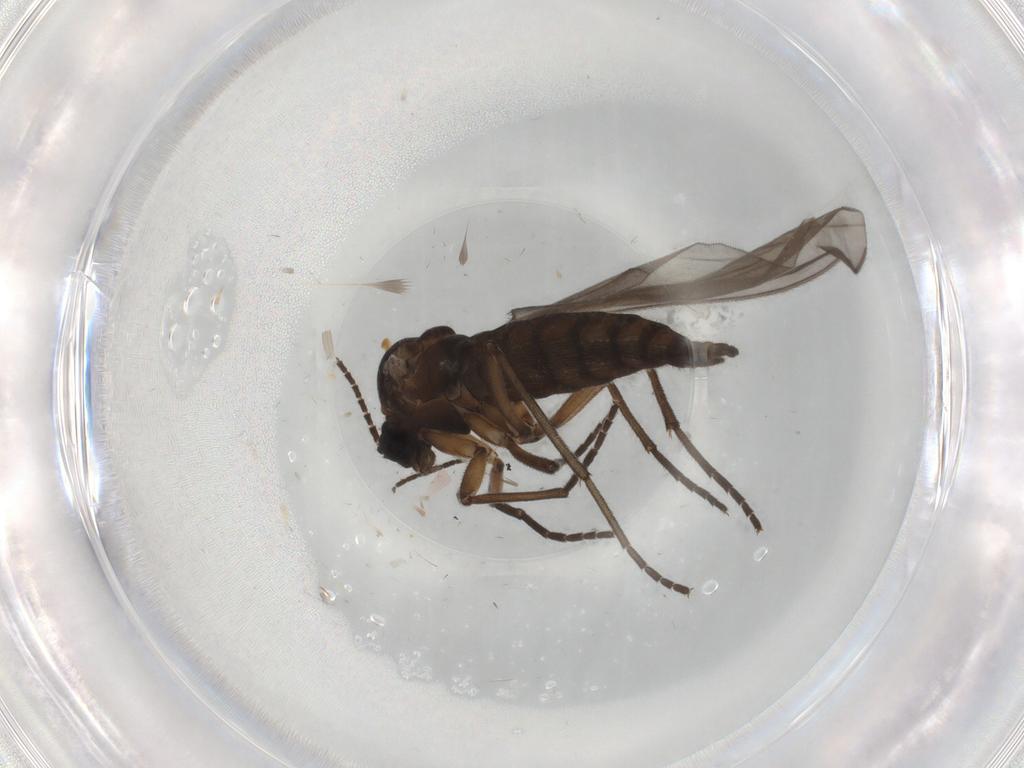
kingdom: Animalia
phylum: Arthropoda
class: Insecta
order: Diptera
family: Sciaridae
